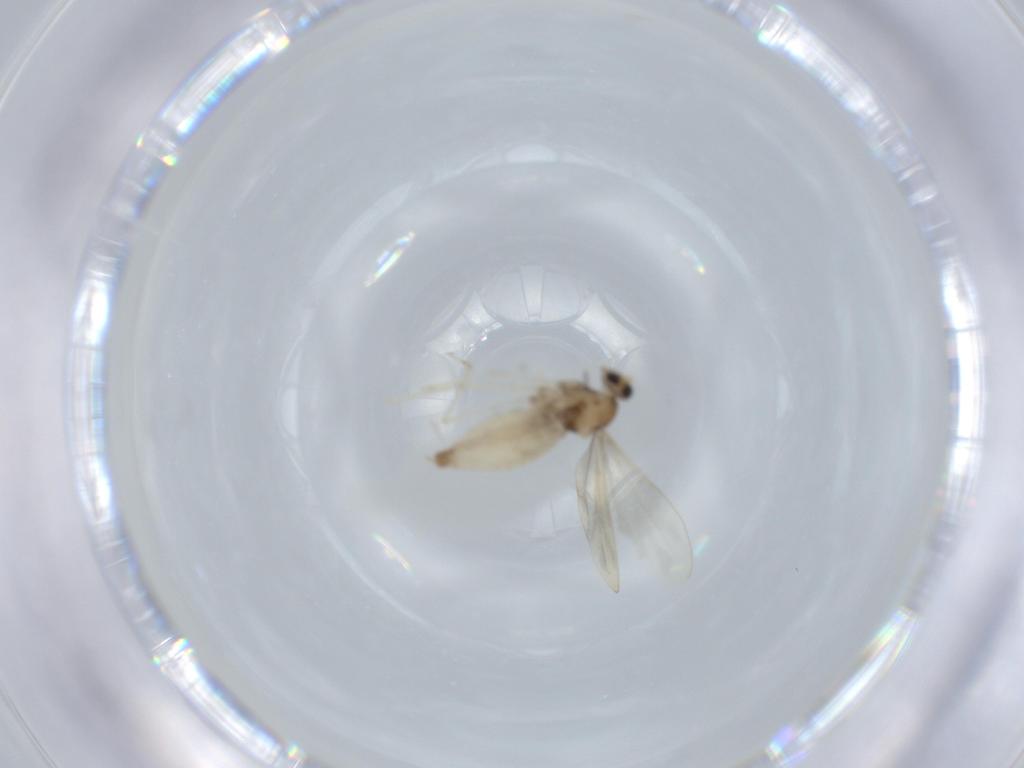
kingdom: Animalia
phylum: Arthropoda
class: Insecta
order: Diptera
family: Cecidomyiidae
